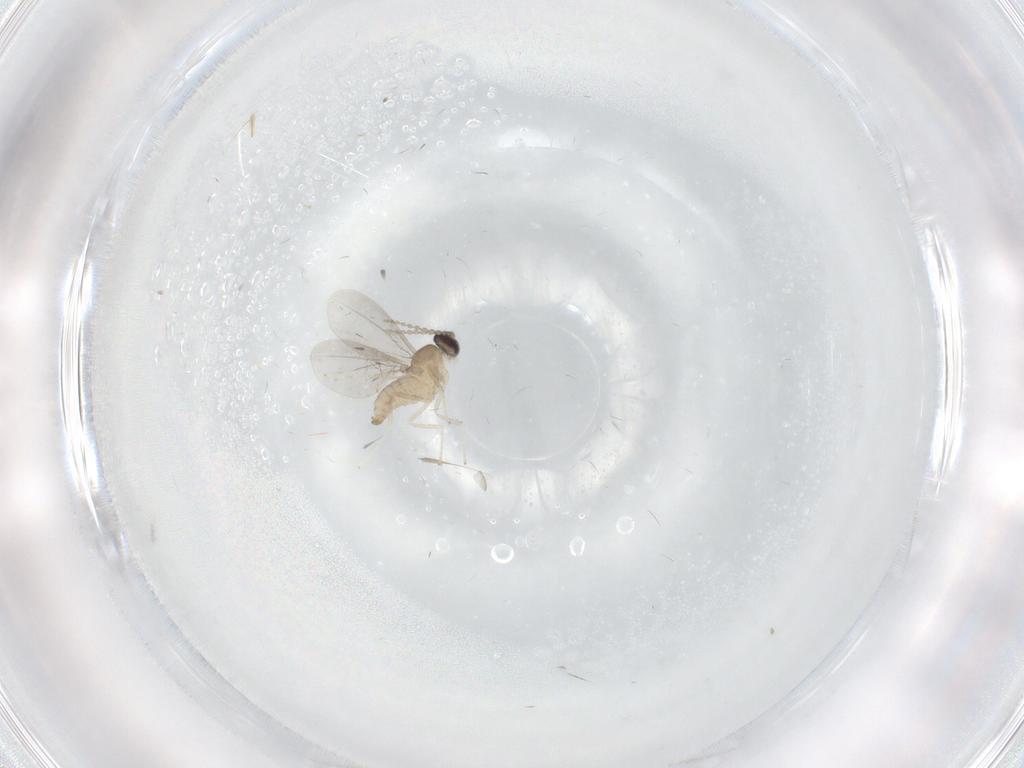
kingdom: Animalia
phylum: Arthropoda
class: Insecta
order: Diptera
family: Cecidomyiidae
